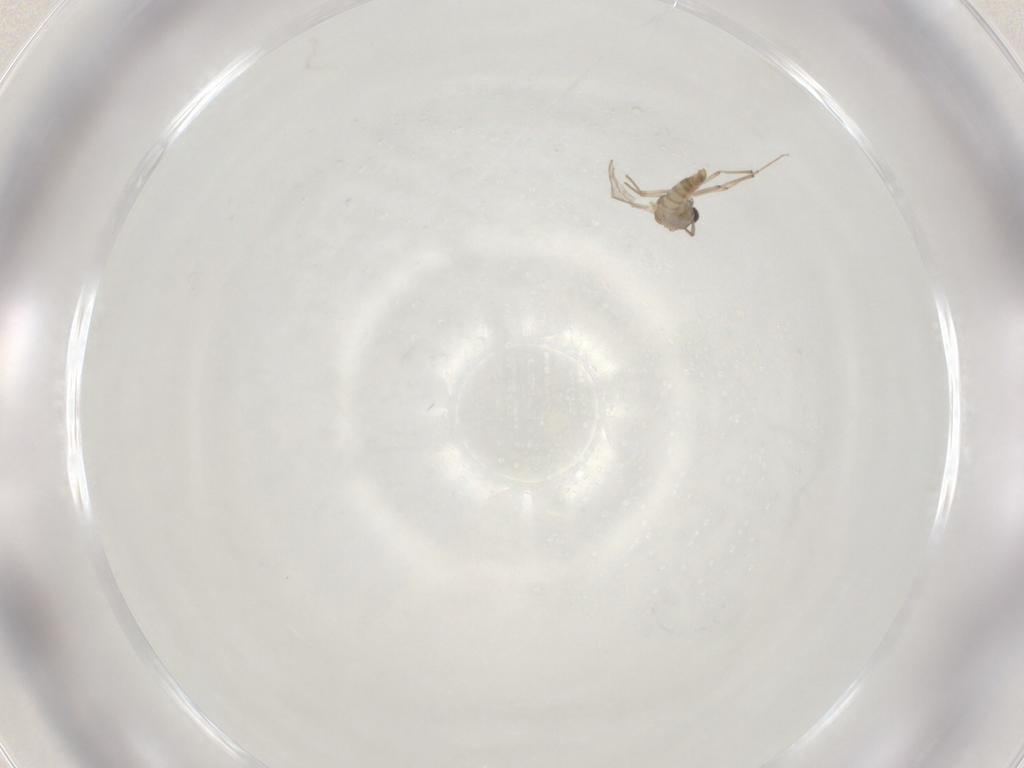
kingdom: Animalia
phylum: Arthropoda
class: Insecta
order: Diptera
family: Chironomidae
